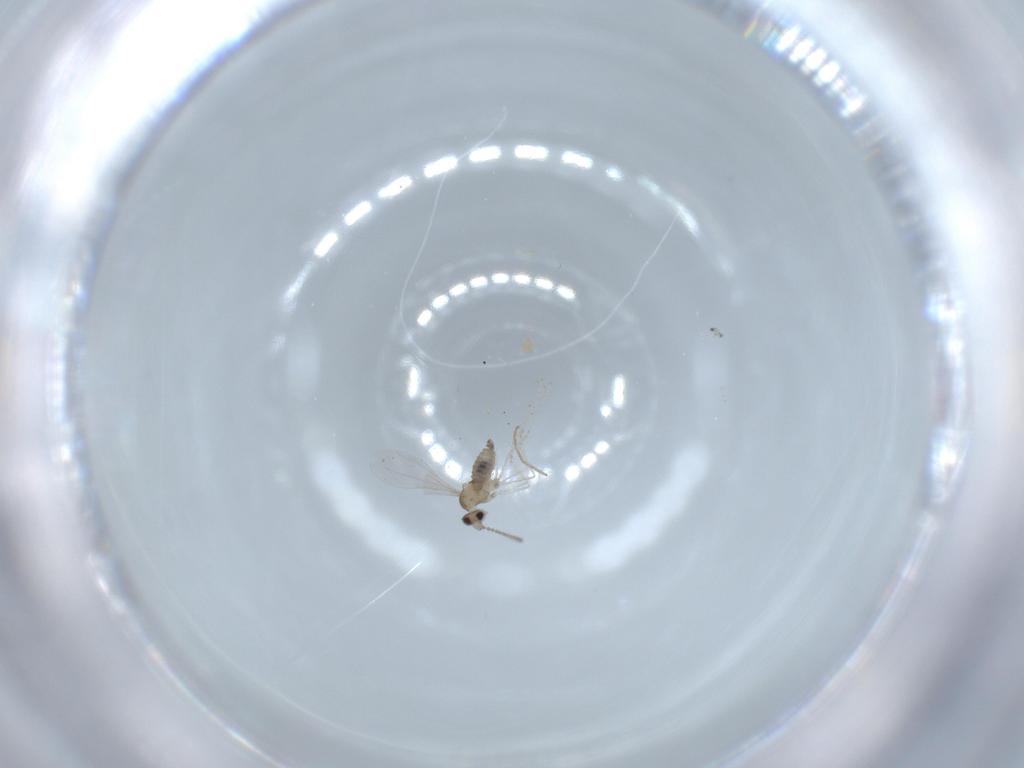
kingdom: Animalia
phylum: Arthropoda
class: Insecta
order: Diptera
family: Cecidomyiidae
